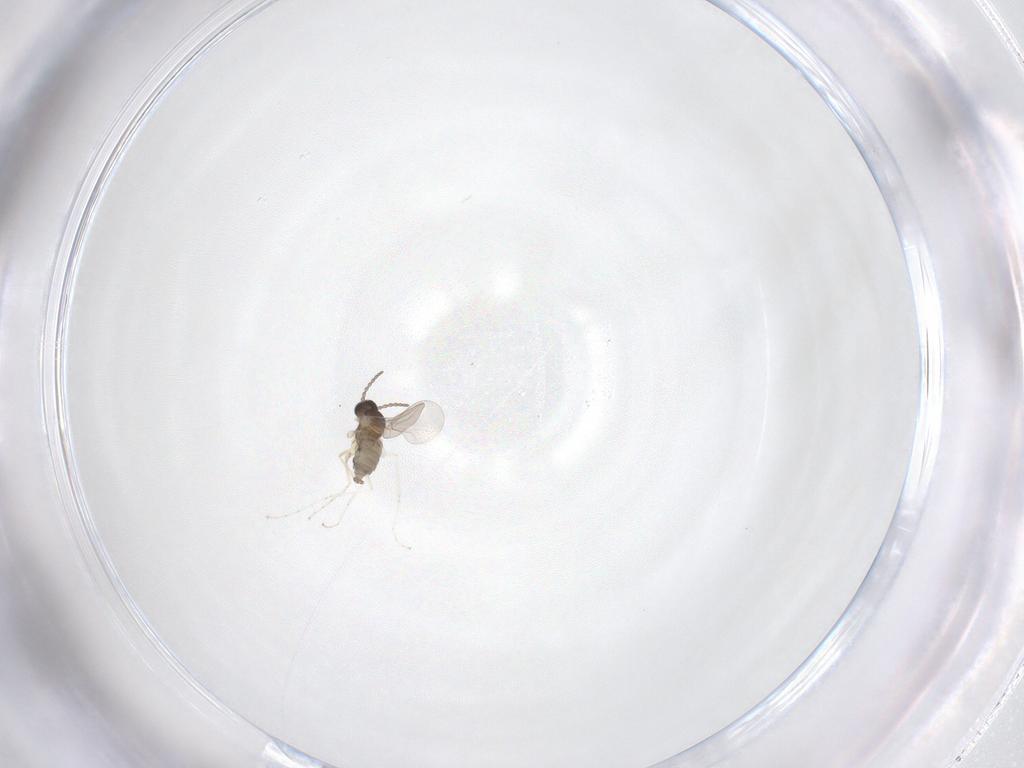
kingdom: Animalia
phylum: Arthropoda
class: Insecta
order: Diptera
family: Cecidomyiidae
